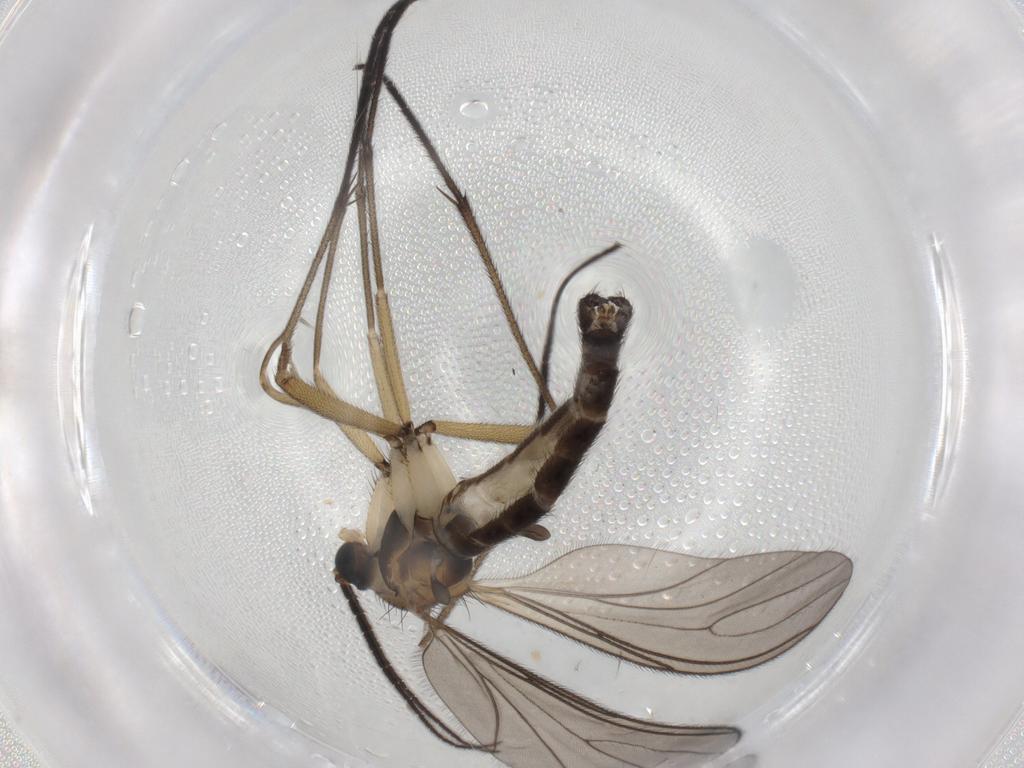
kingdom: Animalia
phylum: Arthropoda
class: Insecta
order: Diptera
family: Sciaridae
